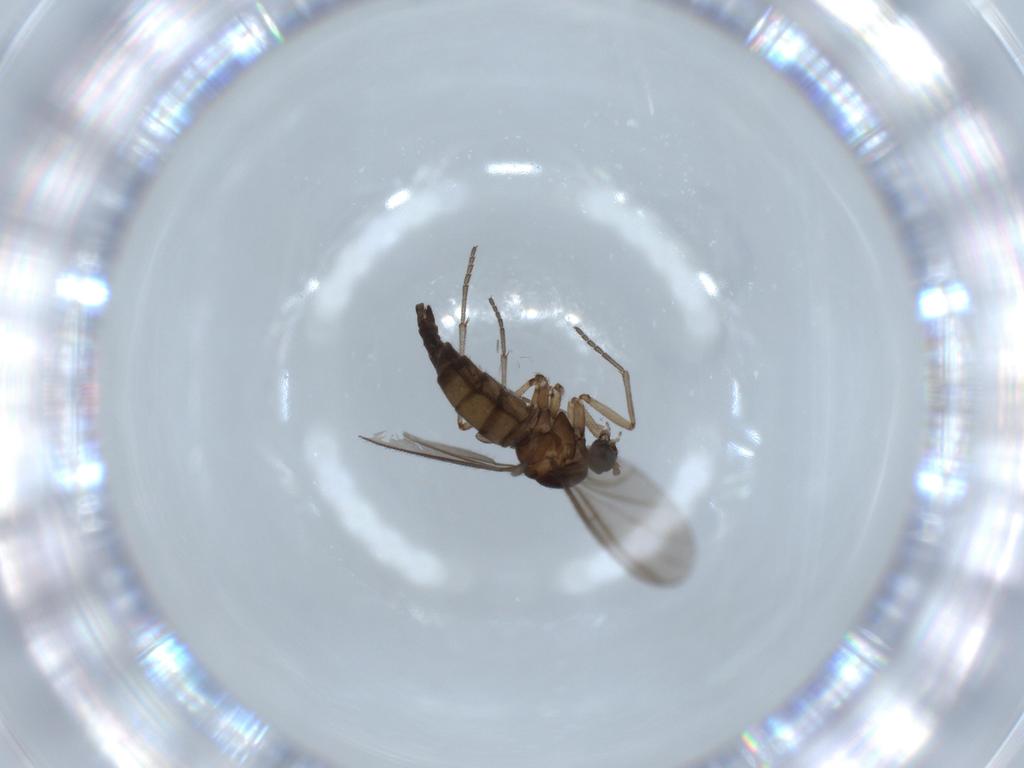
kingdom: Animalia
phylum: Arthropoda
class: Insecta
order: Diptera
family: Sciaridae
